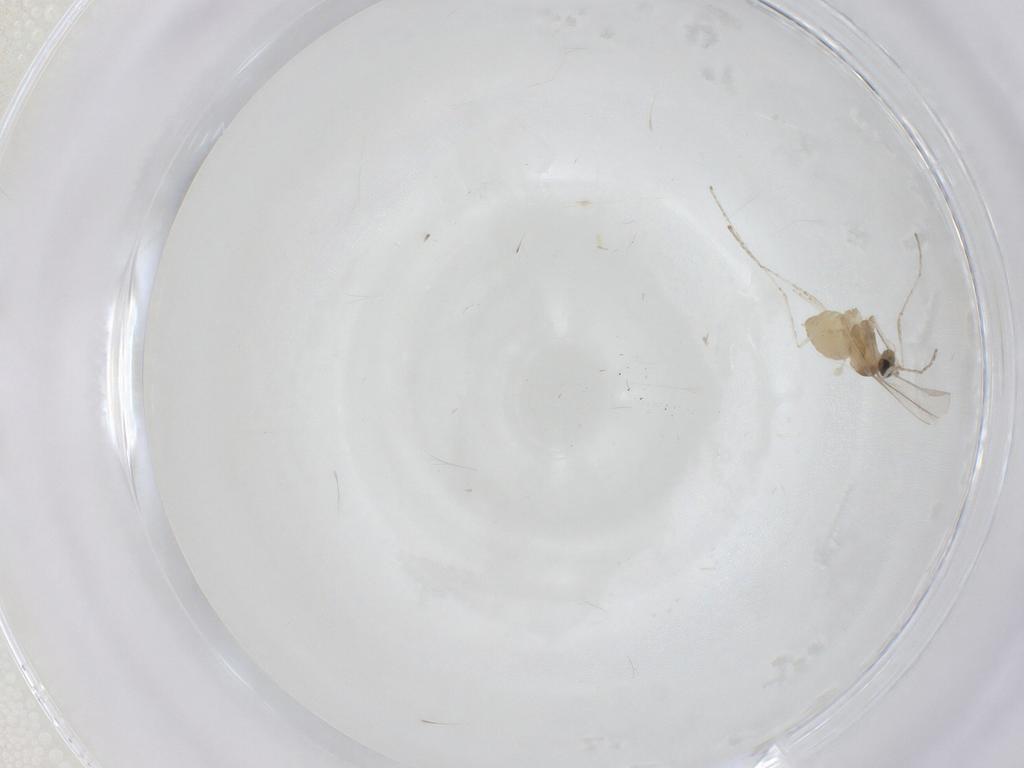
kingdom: Animalia
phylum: Arthropoda
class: Insecta
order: Diptera
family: Cecidomyiidae
